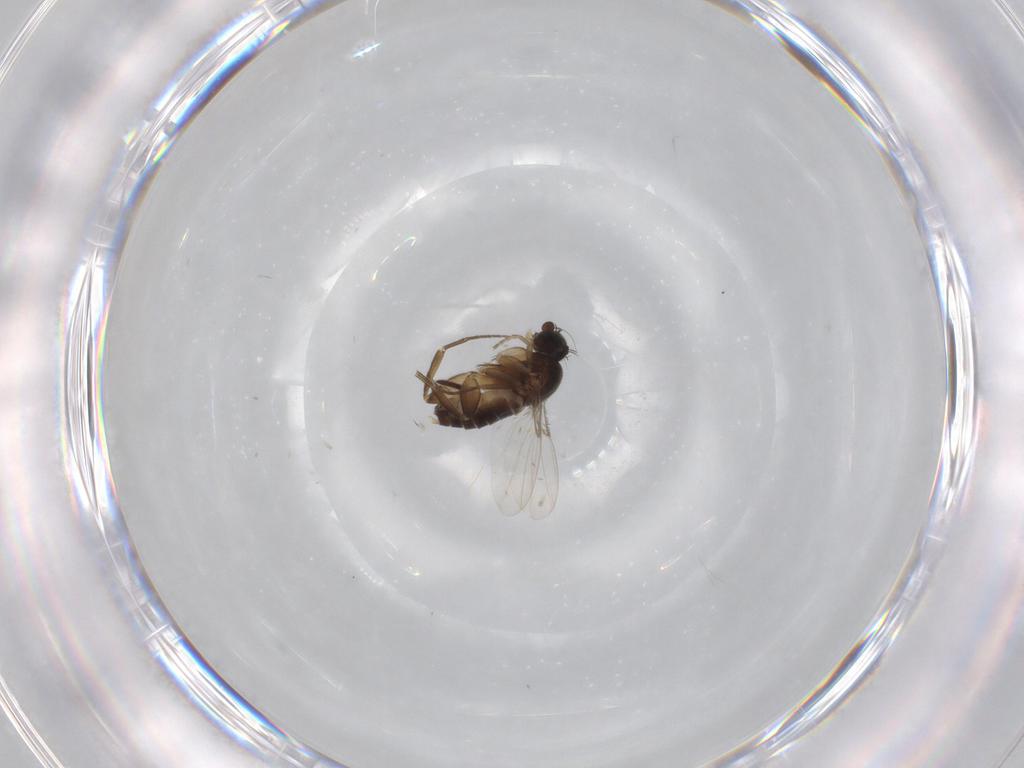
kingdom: Animalia
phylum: Arthropoda
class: Insecta
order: Diptera
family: Phoridae
